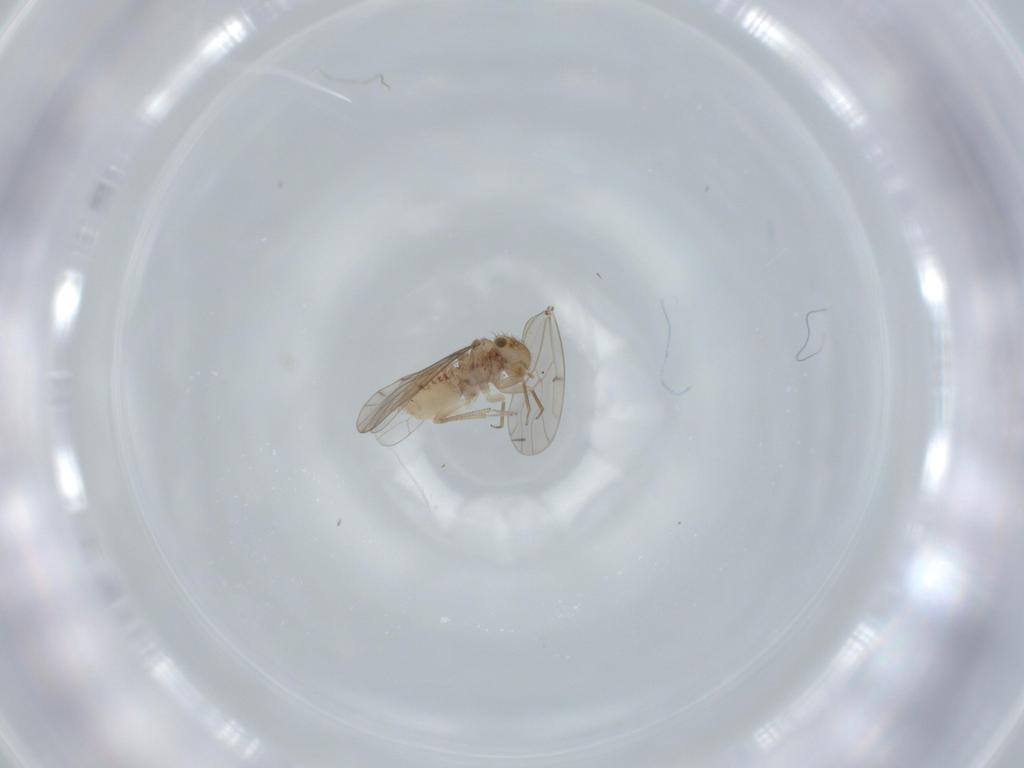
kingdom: Animalia
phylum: Arthropoda
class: Insecta
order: Psocodea
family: Ectopsocidae
